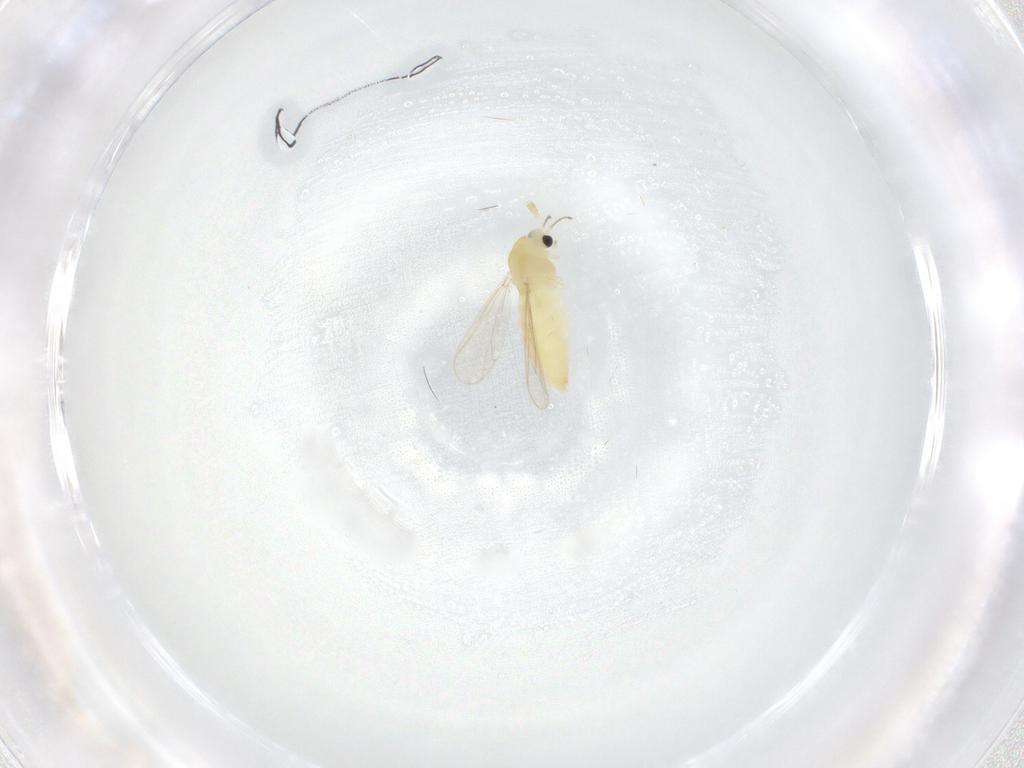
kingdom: Animalia
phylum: Arthropoda
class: Insecta
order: Diptera
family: Chironomidae
